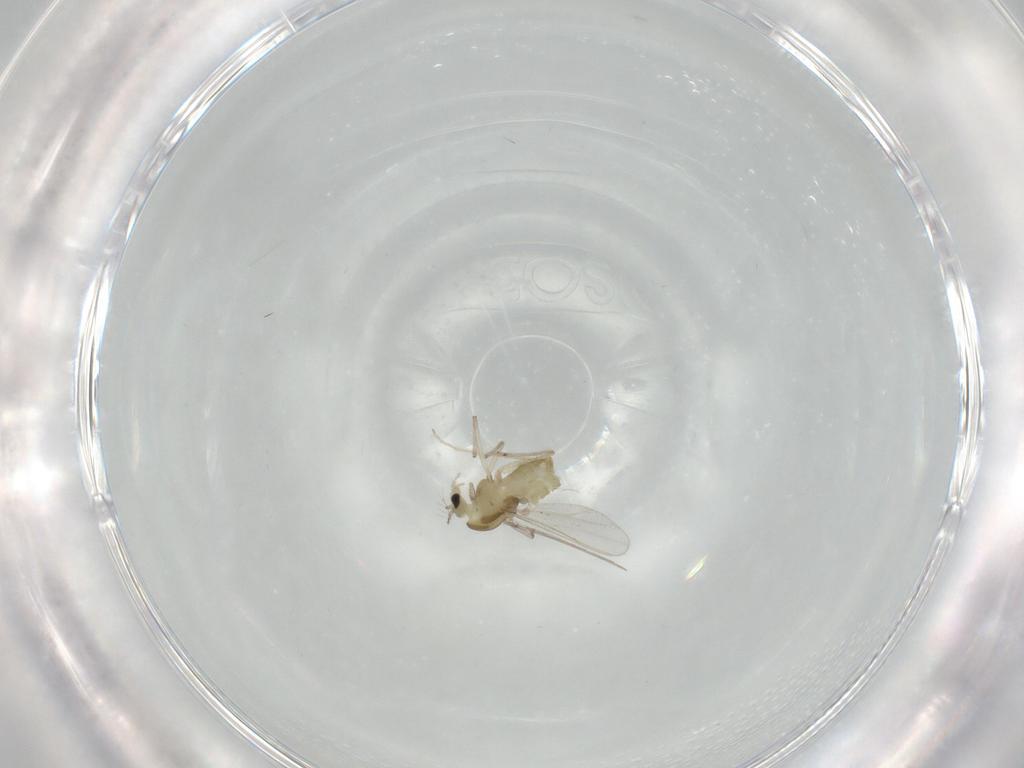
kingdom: Animalia
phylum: Arthropoda
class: Insecta
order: Diptera
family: Chironomidae
